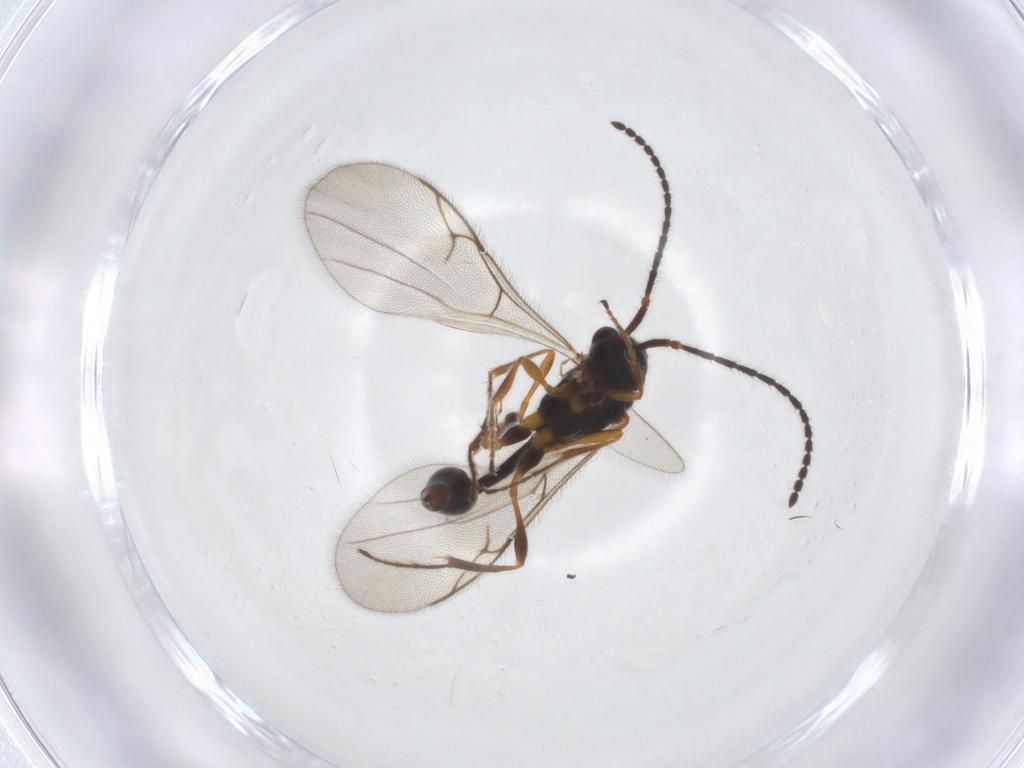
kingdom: Animalia
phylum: Arthropoda
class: Insecta
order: Hymenoptera
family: Diapriidae
